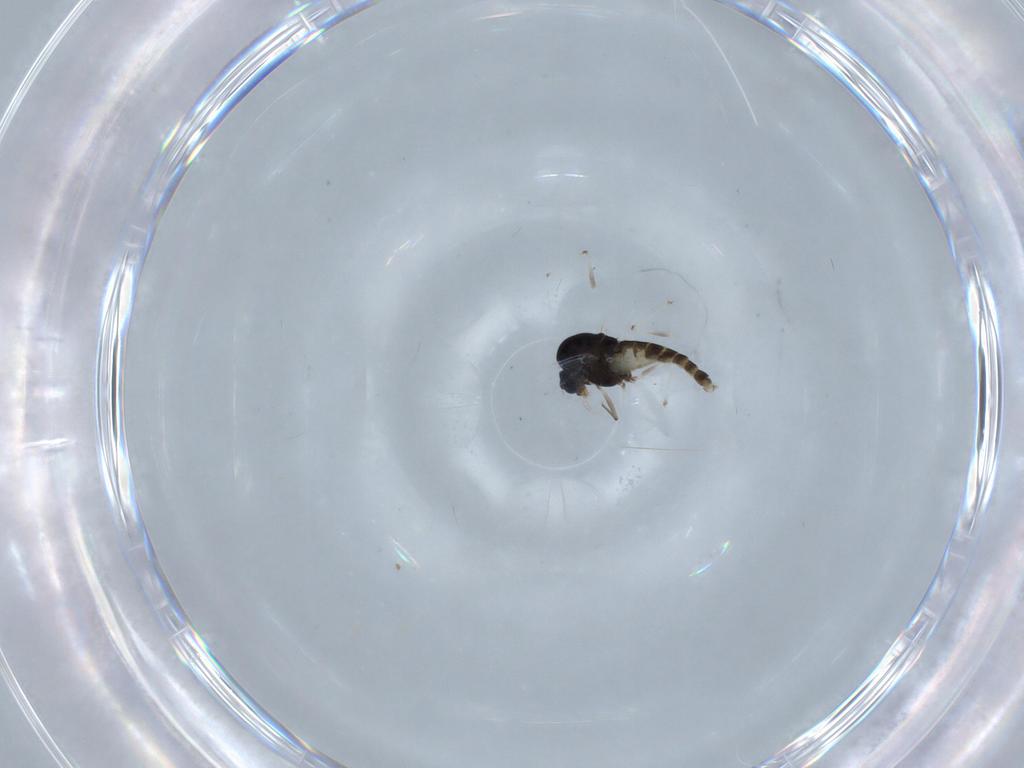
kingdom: Animalia
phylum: Arthropoda
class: Insecta
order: Diptera
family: Chironomidae
